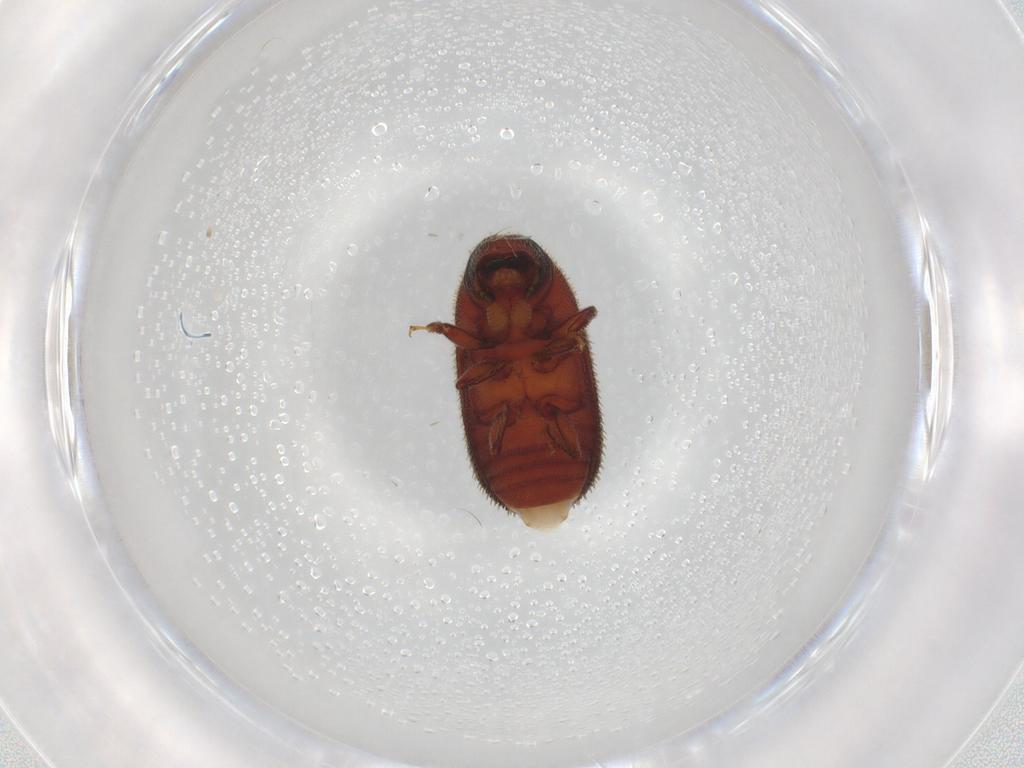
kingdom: Animalia
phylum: Arthropoda
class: Insecta
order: Coleoptera
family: Curculionidae
